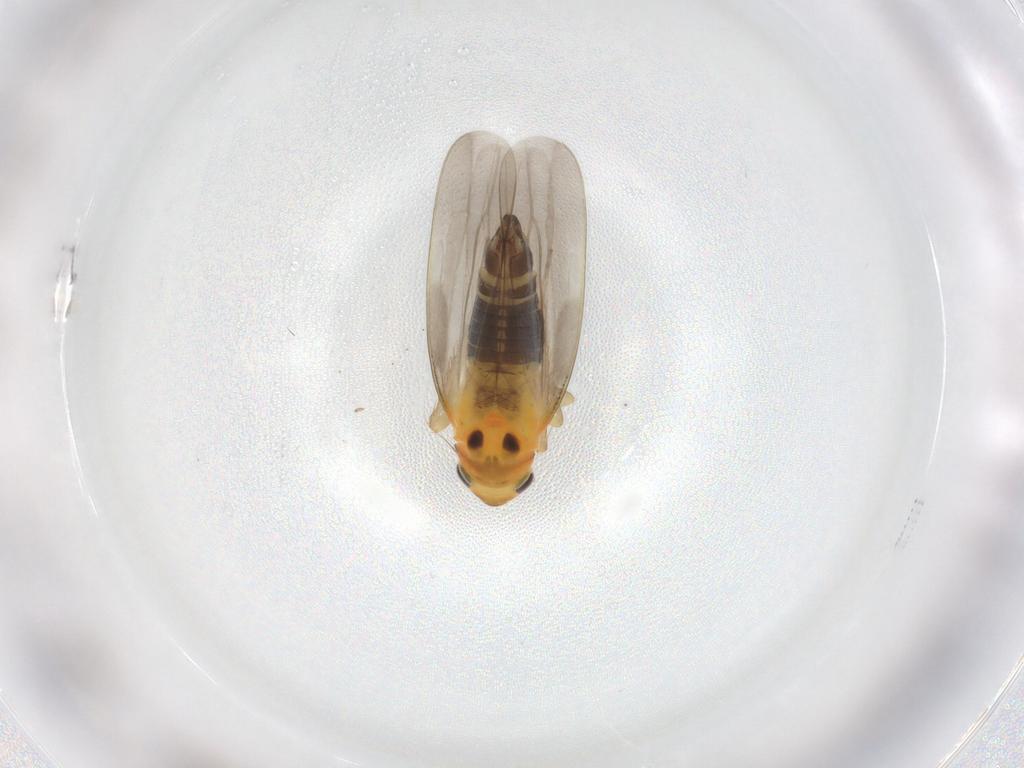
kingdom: Animalia
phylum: Arthropoda
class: Insecta
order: Hemiptera
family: Cicadellidae
